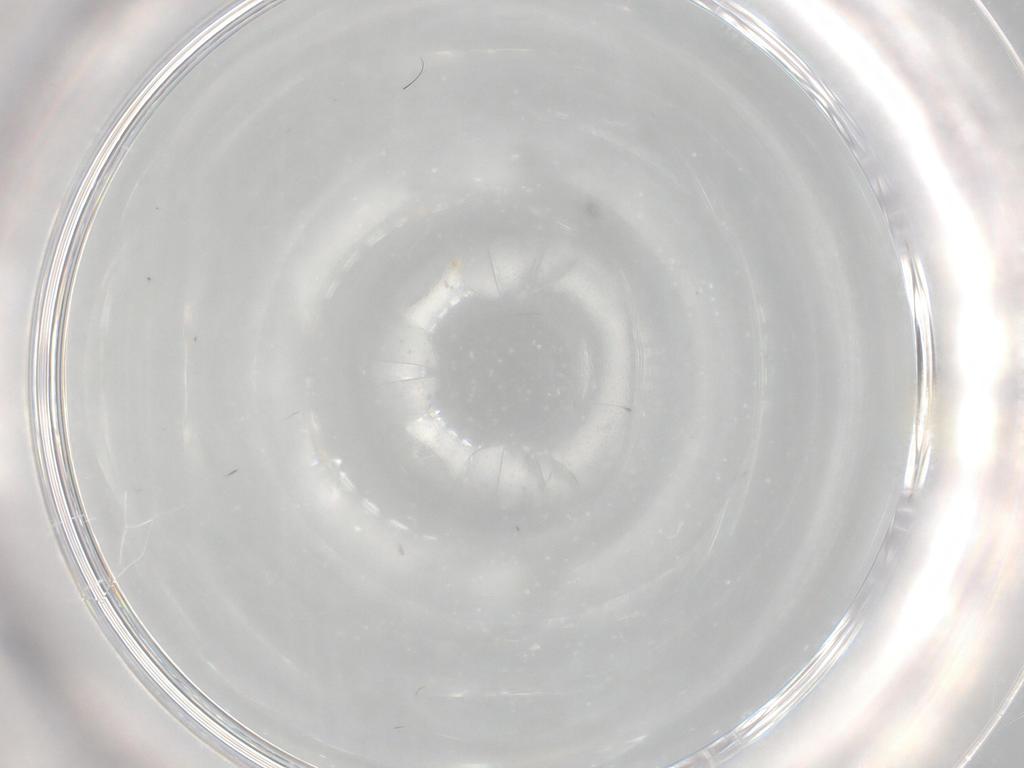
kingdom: Animalia
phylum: Arthropoda
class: Insecta
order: Diptera
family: Cecidomyiidae
